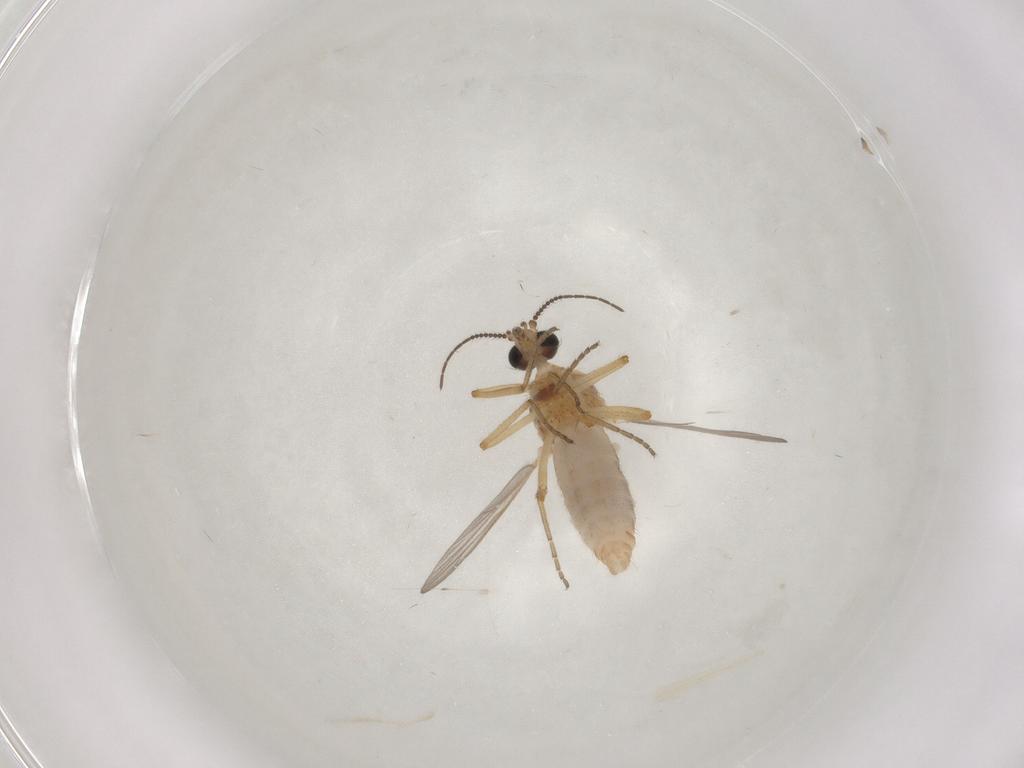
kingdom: Animalia
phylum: Arthropoda
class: Insecta
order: Diptera
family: Ceratopogonidae
